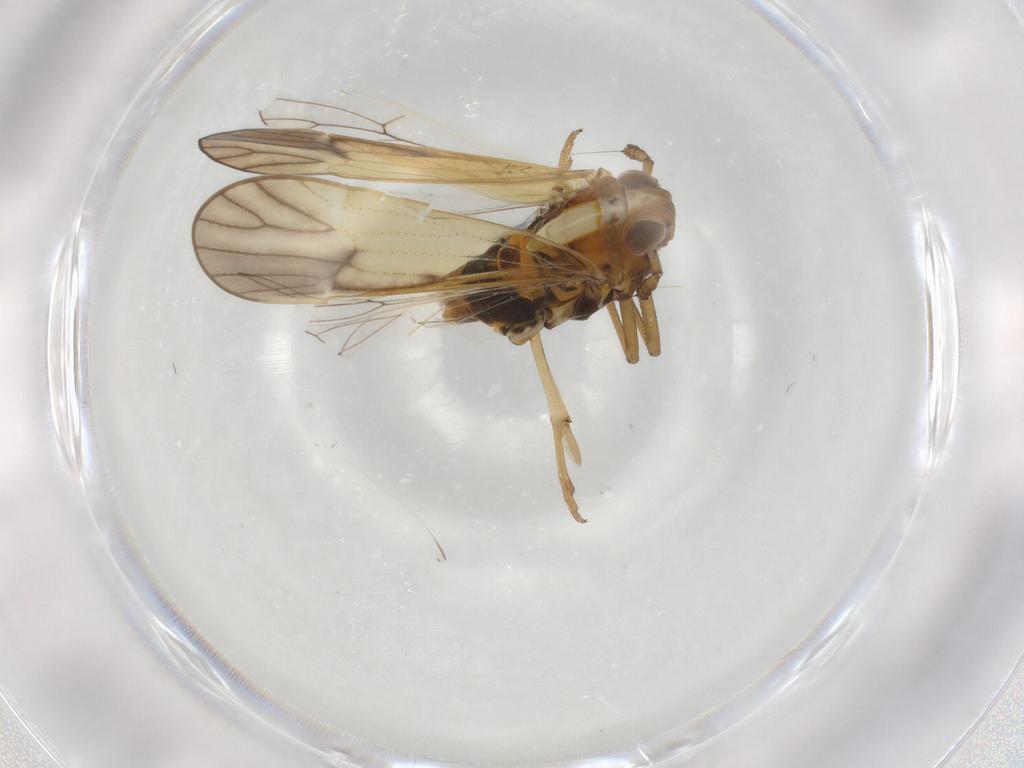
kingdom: Animalia
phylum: Arthropoda
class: Insecta
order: Hemiptera
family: Delphacidae
